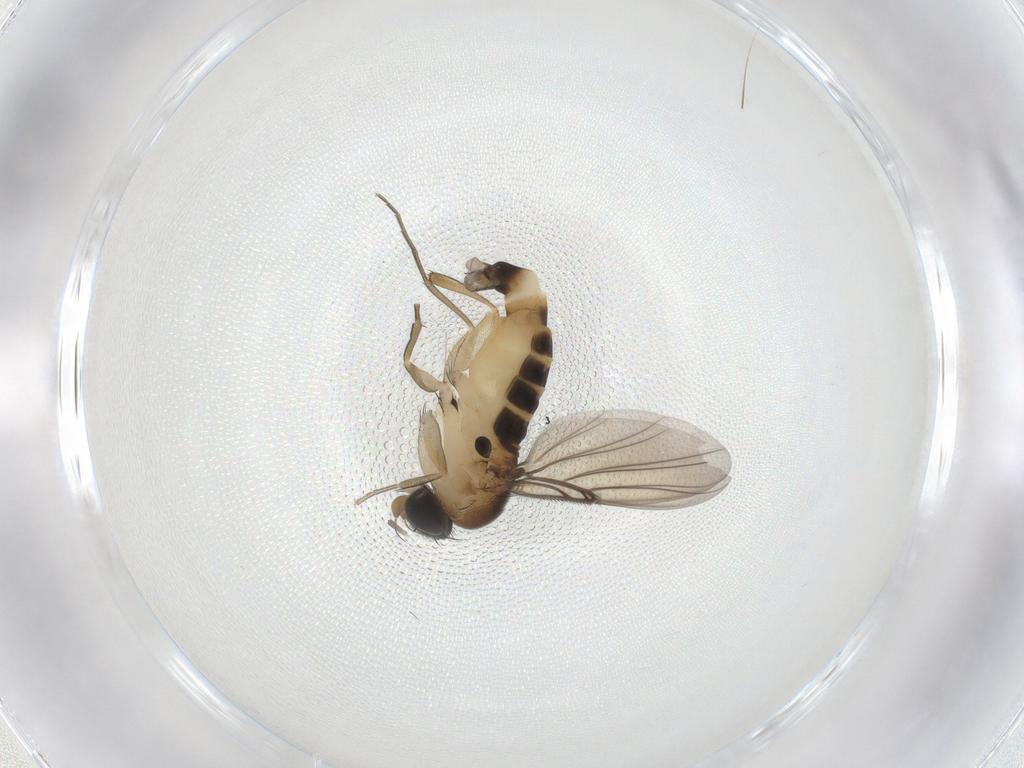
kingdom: Animalia
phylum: Arthropoda
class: Insecta
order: Diptera
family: Phoridae
